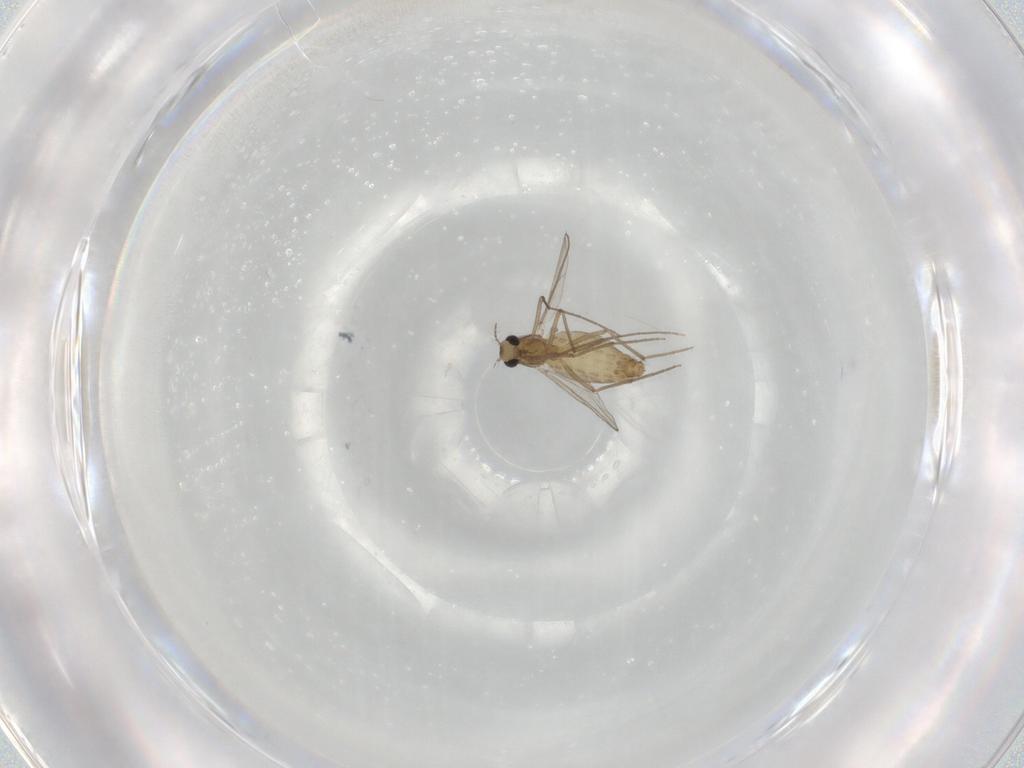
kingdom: Animalia
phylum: Arthropoda
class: Insecta
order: Diptera
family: Chironomidae
